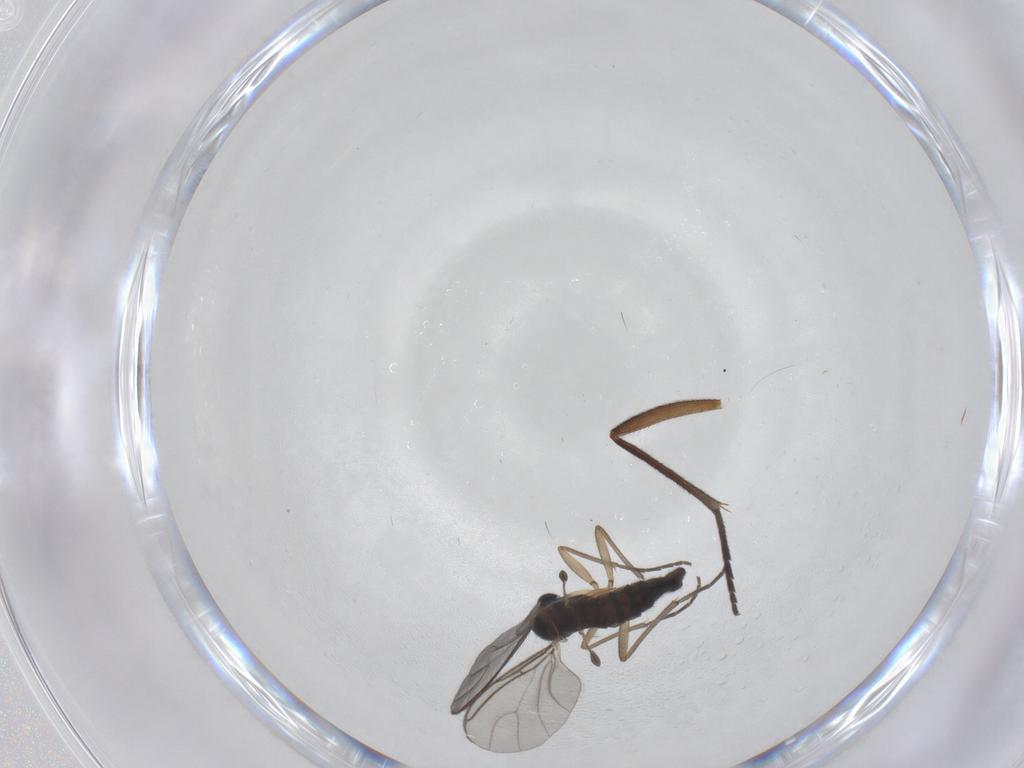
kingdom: Animalia
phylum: Arthropoda
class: Insecta
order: Diptera
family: Sciaridae
